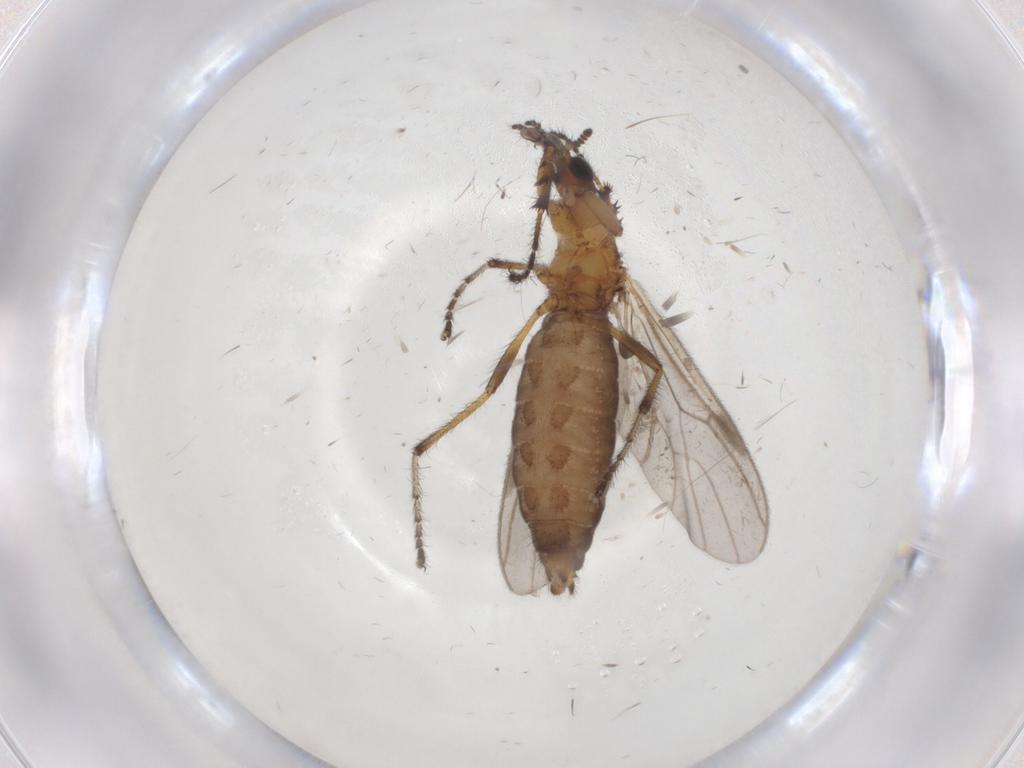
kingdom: Animalia
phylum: Arthropoda
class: Insecta
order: Diptera
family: Bibionidae
